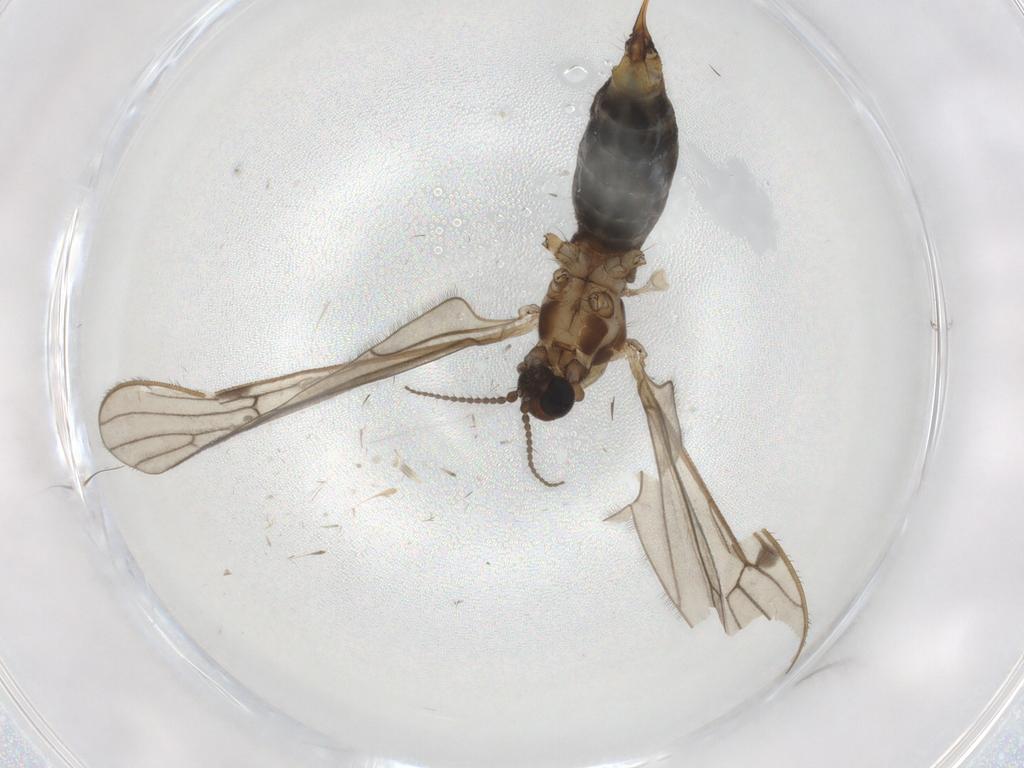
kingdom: Animalia
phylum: Arthropoda
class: Insecta
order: Diptera
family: Limoniidae
